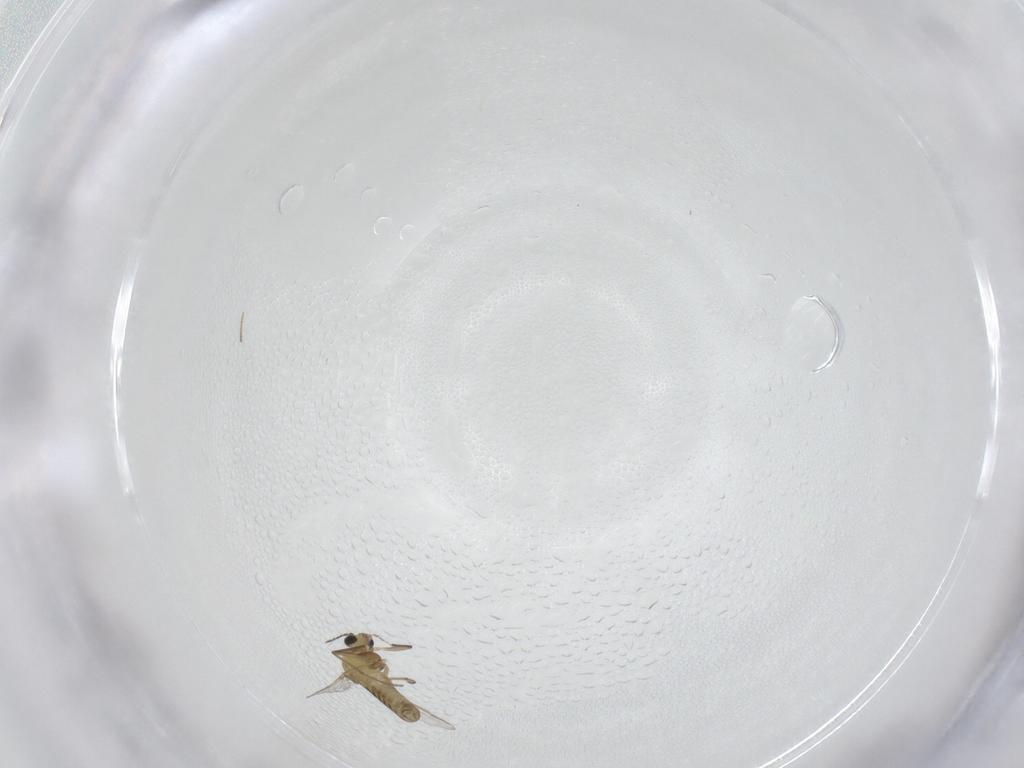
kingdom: Animalia
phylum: Arthropoda
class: Insecta
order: Diptera
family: Chironomidae
